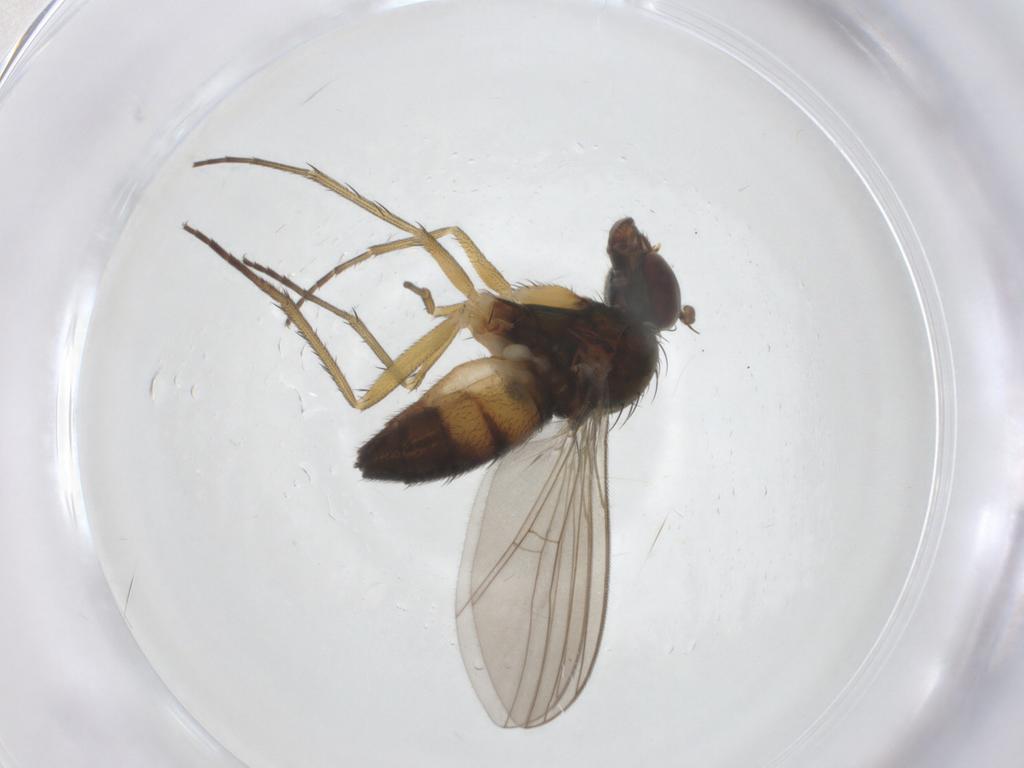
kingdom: Animalia
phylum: Arthropoda
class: Insecta
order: Diptera
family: Dolichopodidae
